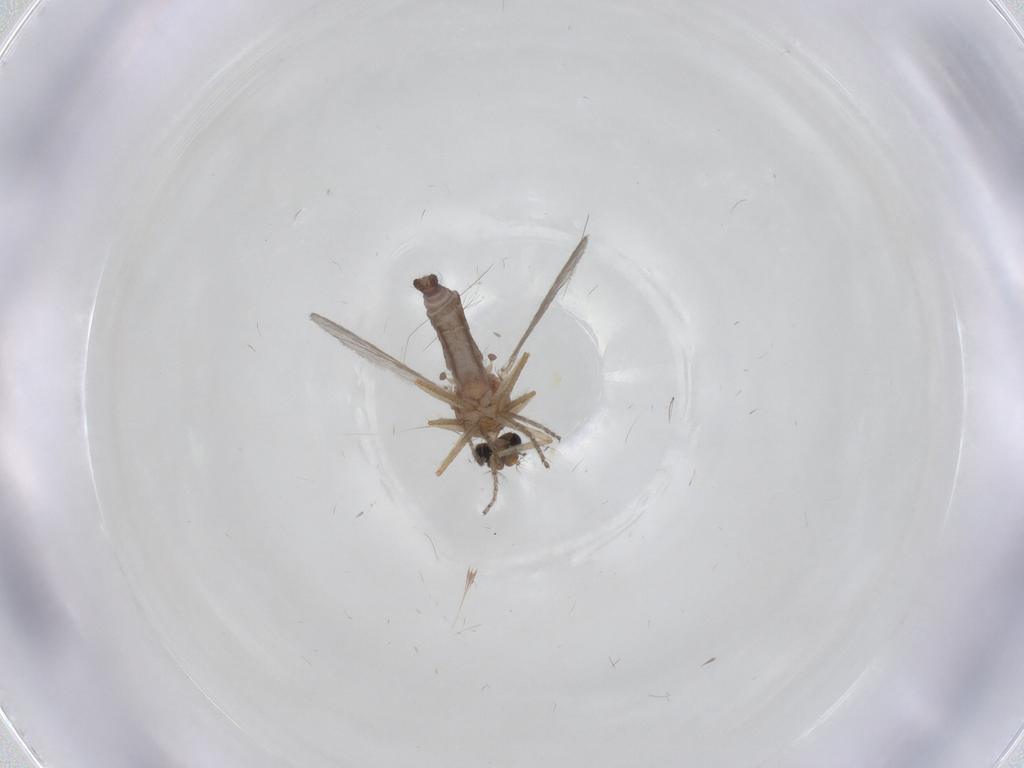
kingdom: Animalia
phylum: Arthropoda
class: Insecta
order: Diptera
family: Ceratopogonidae
